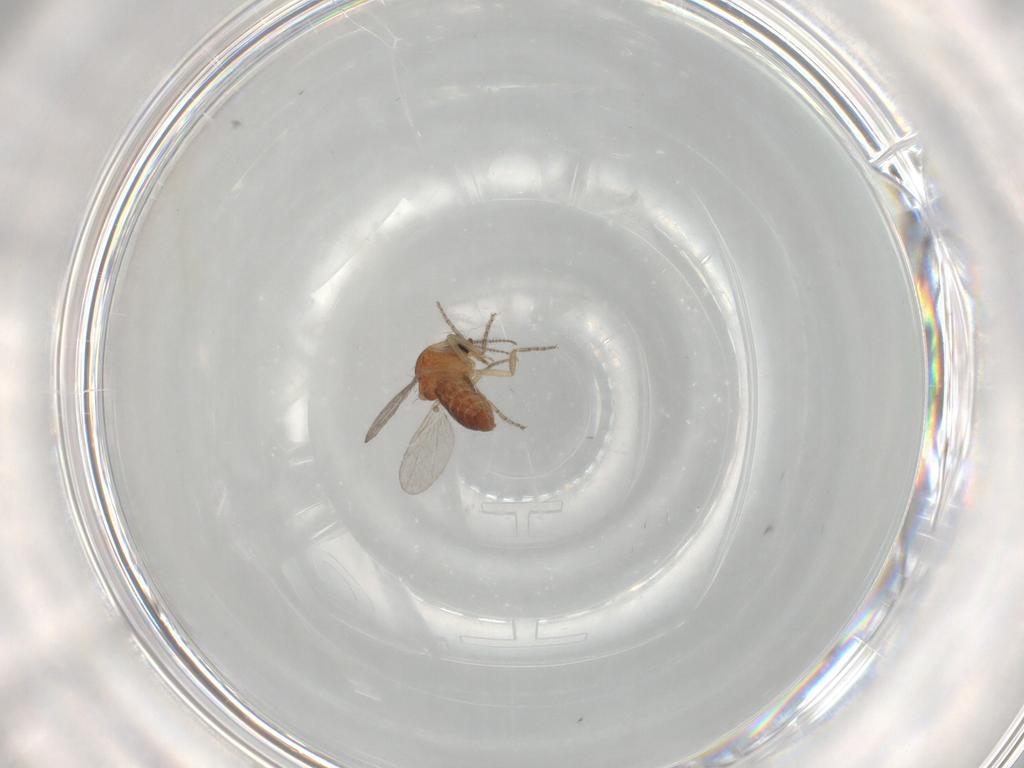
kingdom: Animalia
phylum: Arthropoda
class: Insecta
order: Diptera
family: Ceratopogonidae
